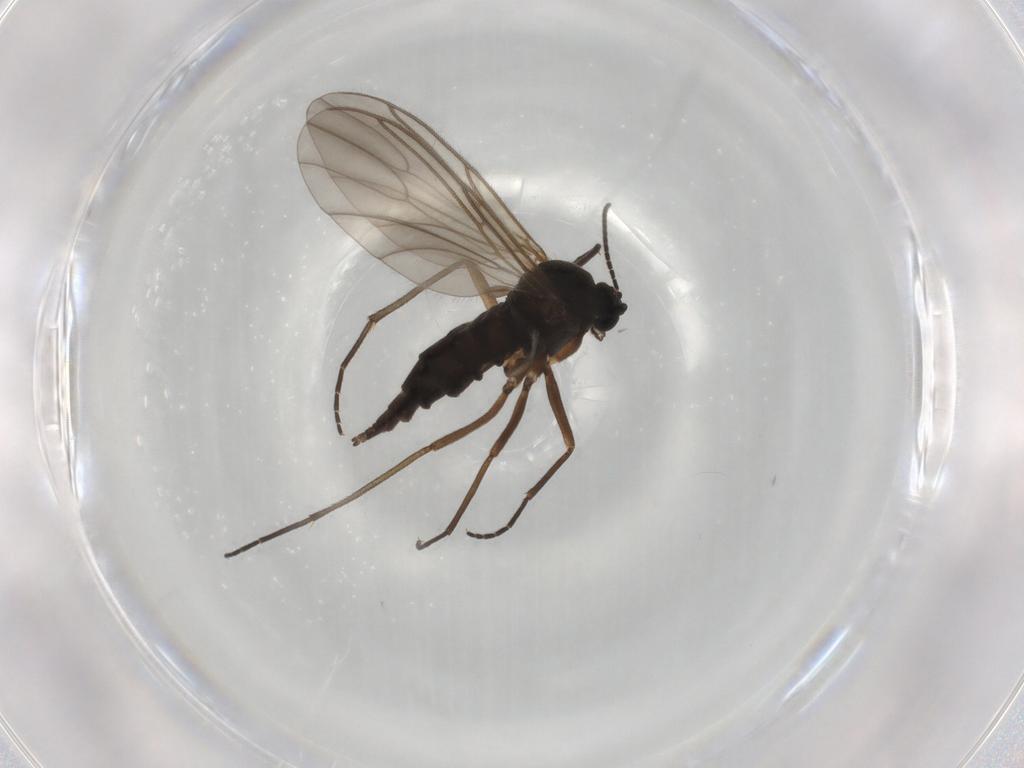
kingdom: Animalia
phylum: Arthropoda
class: Insecta
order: Diptera
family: Sciaridae
